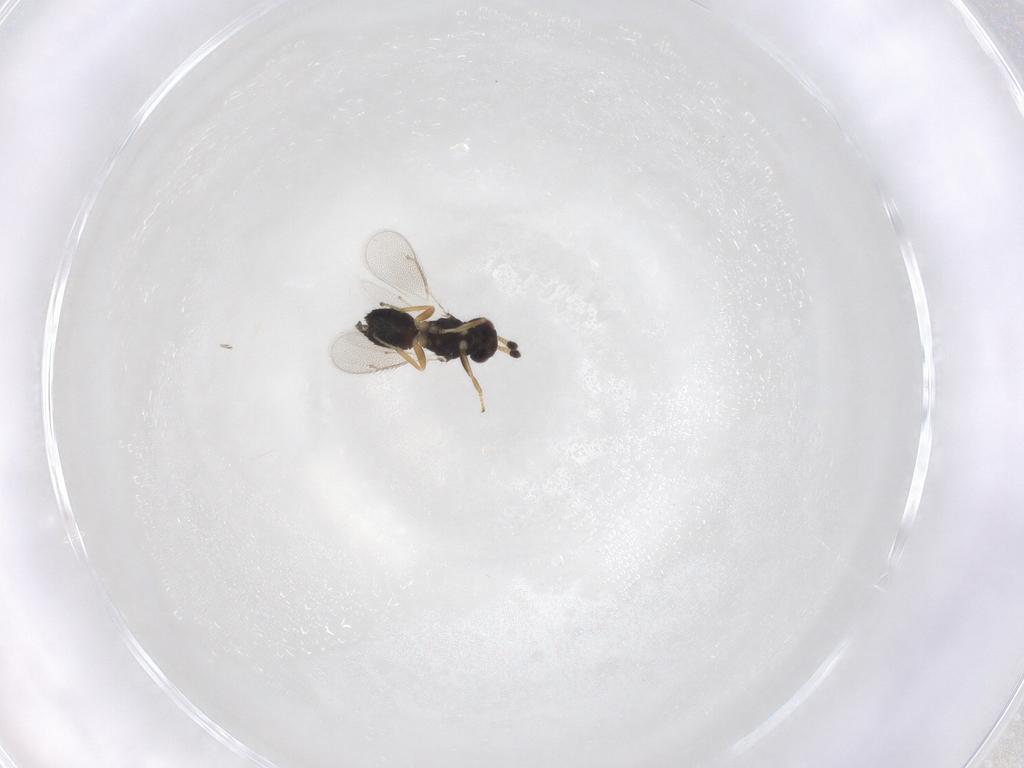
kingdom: Animalia
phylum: Arthropoda
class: Insecta
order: Hymenoptera
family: Eulophidae
